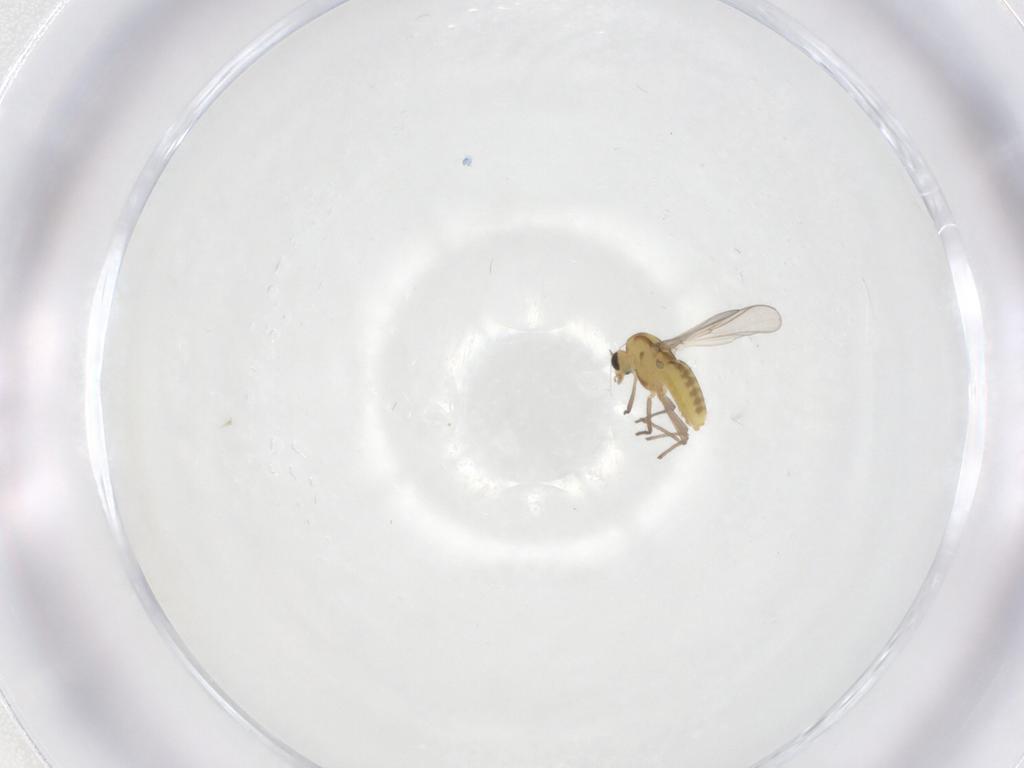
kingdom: Animalia
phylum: Arthropoda
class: Insecta
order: Diptera
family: Chironomidae
